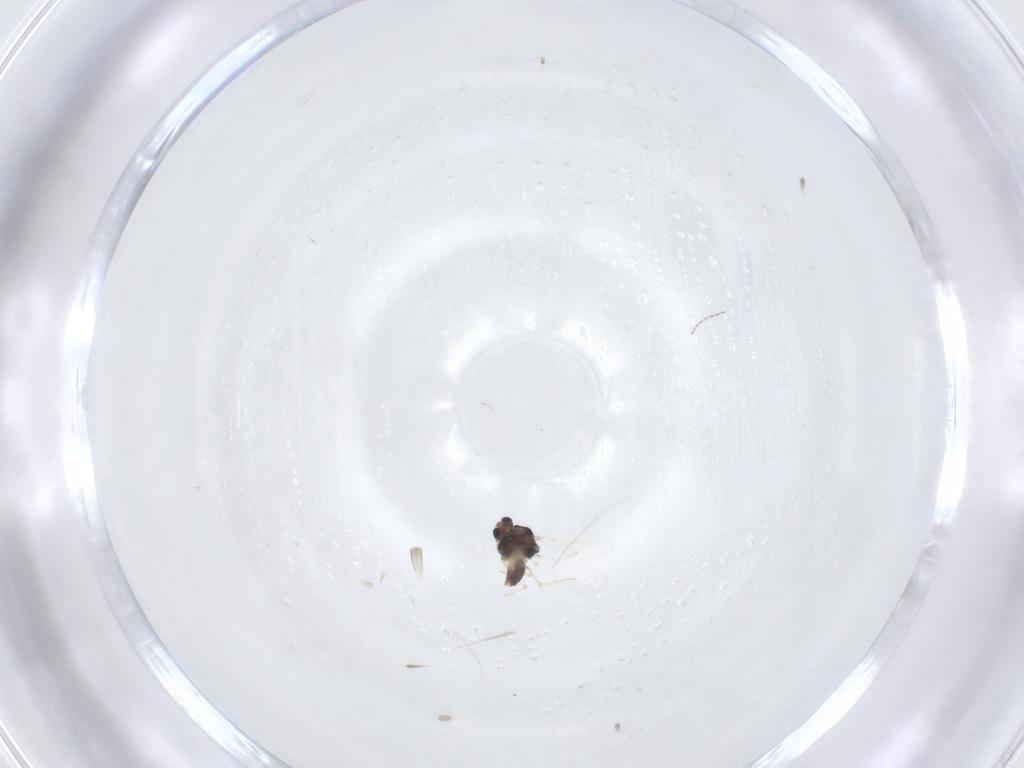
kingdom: Animalia
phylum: Arthropoda
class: Insecta
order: Diptera
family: Chironomidae
